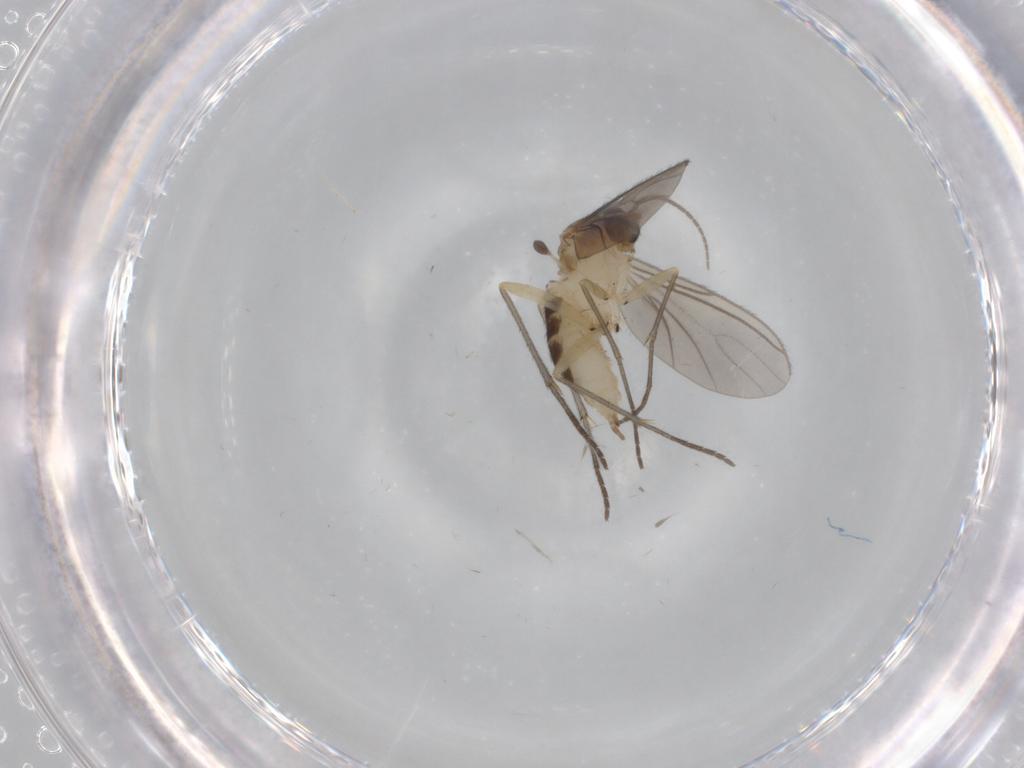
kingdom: Animalia
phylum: Arthropoda
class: Insecta
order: Diptera
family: Sciaridae
